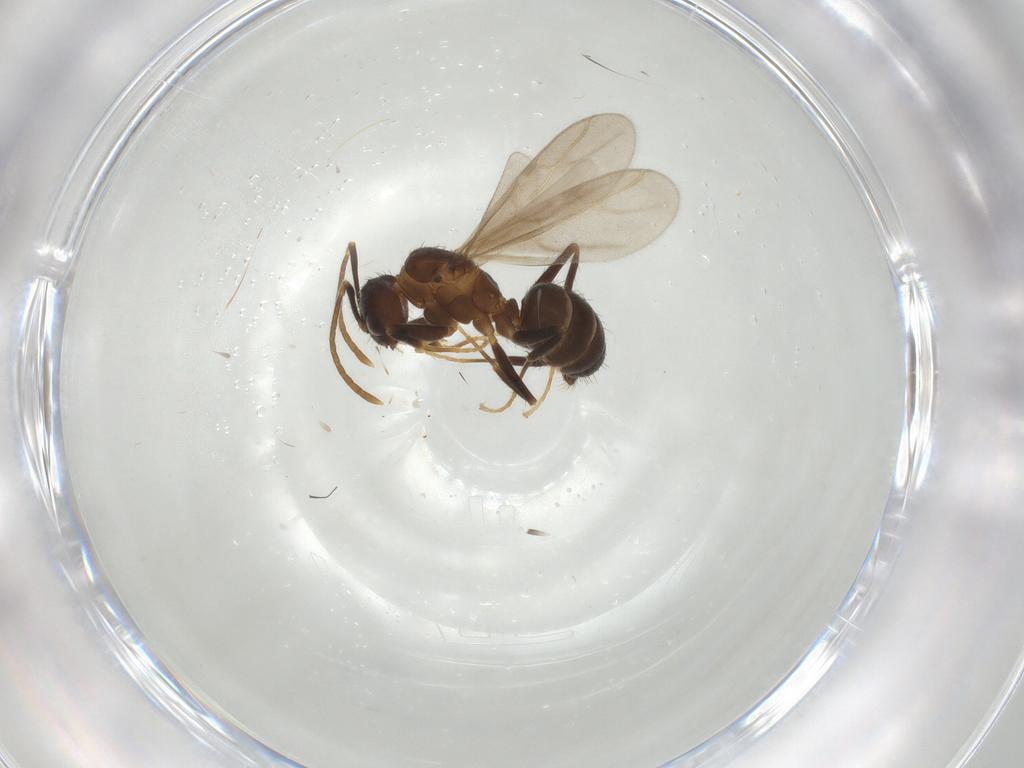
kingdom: Animalia
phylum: Arthropoda
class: Insecta
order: Hymenoptera
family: Formicidae
